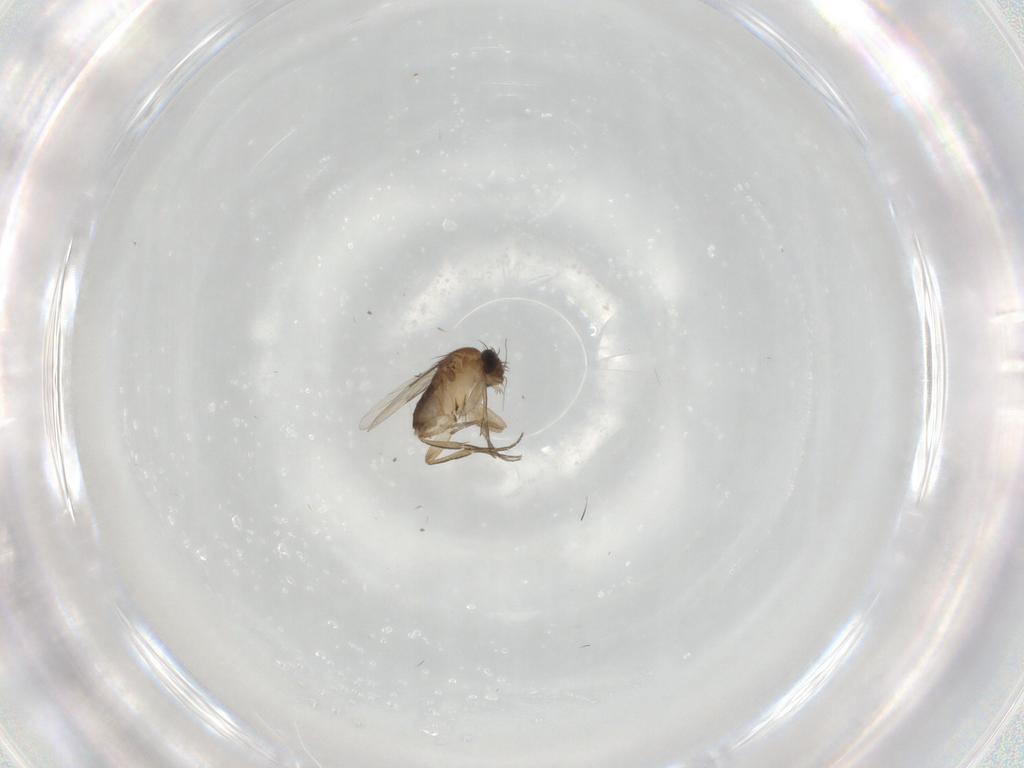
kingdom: Animalia
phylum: Arthropoda
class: Insecta
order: Diptera
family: Phoridae
